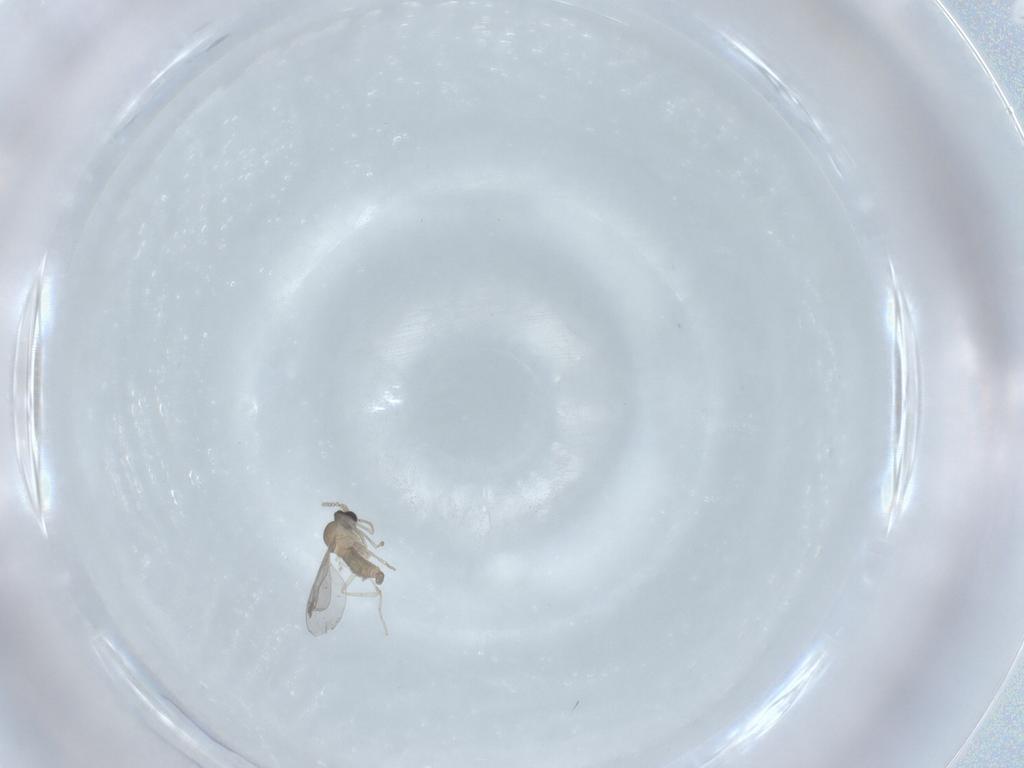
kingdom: Animalia
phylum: Arthropoda
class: Insecta
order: Diptera
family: Cecidomyiidae
